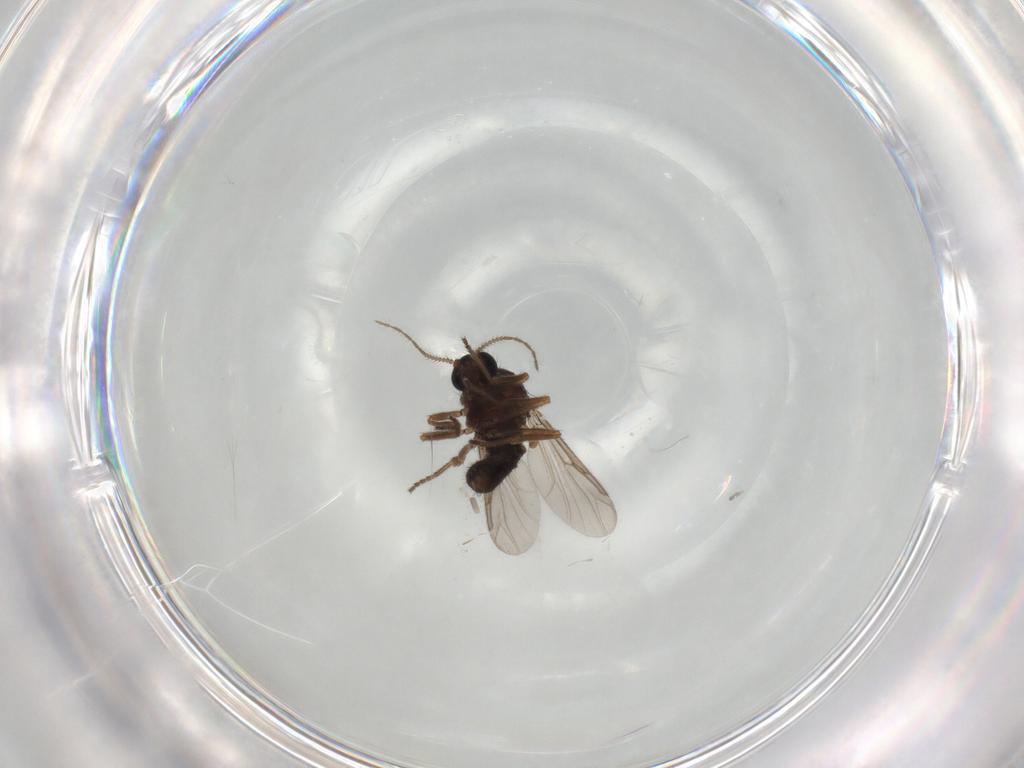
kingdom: Animalia
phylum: Arthropoda
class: Insecta
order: Diptera
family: Ceratopogonidae
